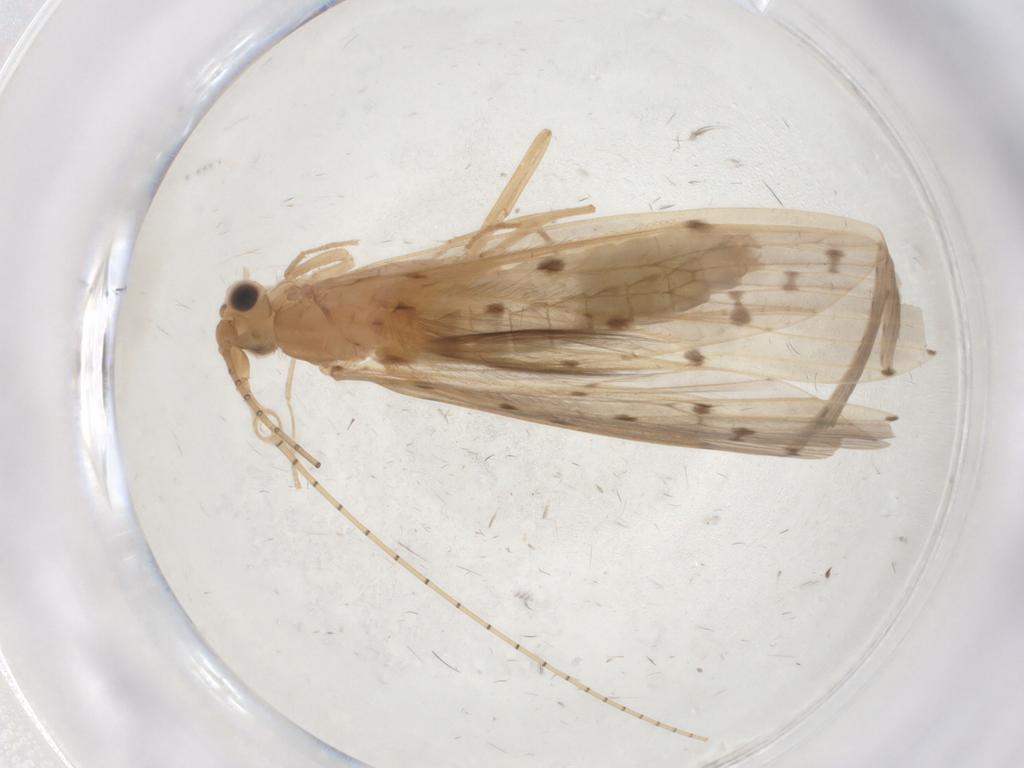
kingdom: Animalia
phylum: Arthropoda
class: Insecta
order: Trichoptera
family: Leptoceridae
